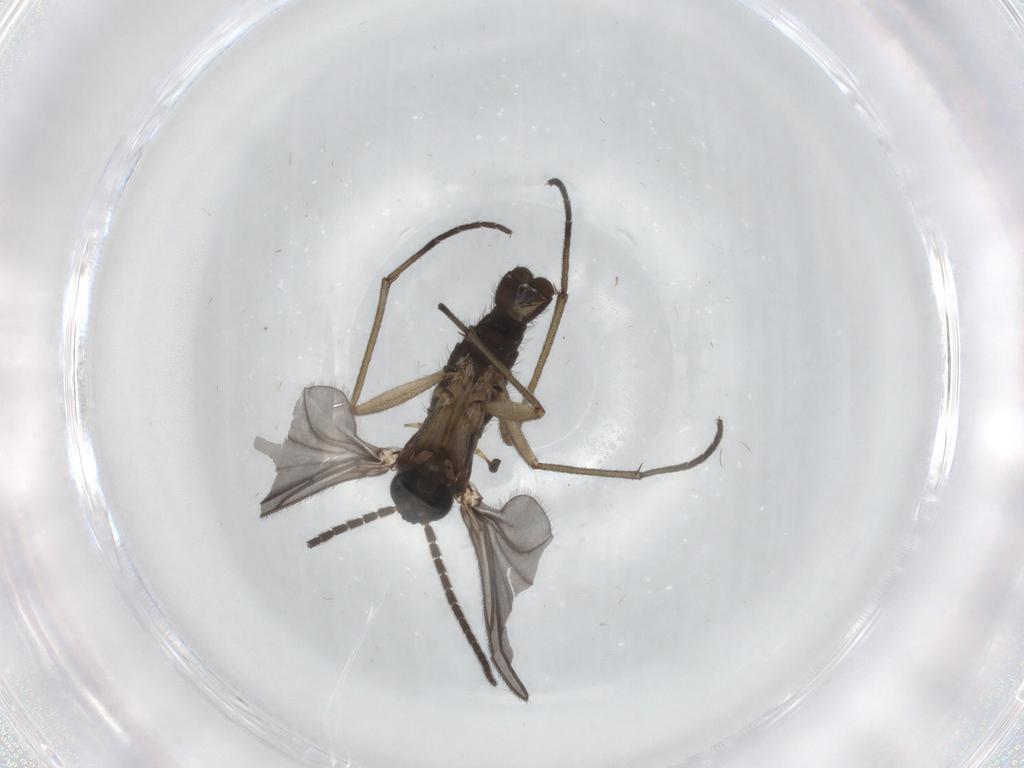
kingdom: Animalia
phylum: Arthropoda
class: Insecta
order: Diptera
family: Sciaridae
